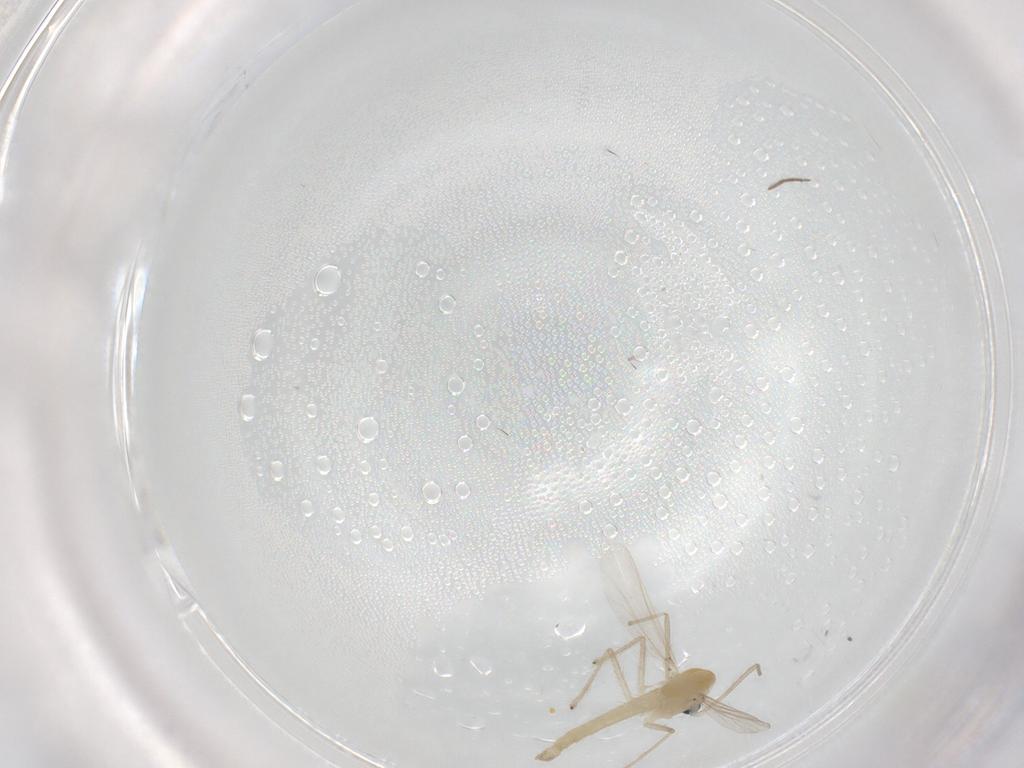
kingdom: Animalia
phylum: Arthropoda
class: Insecta
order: Diptera
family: Chironomidae
